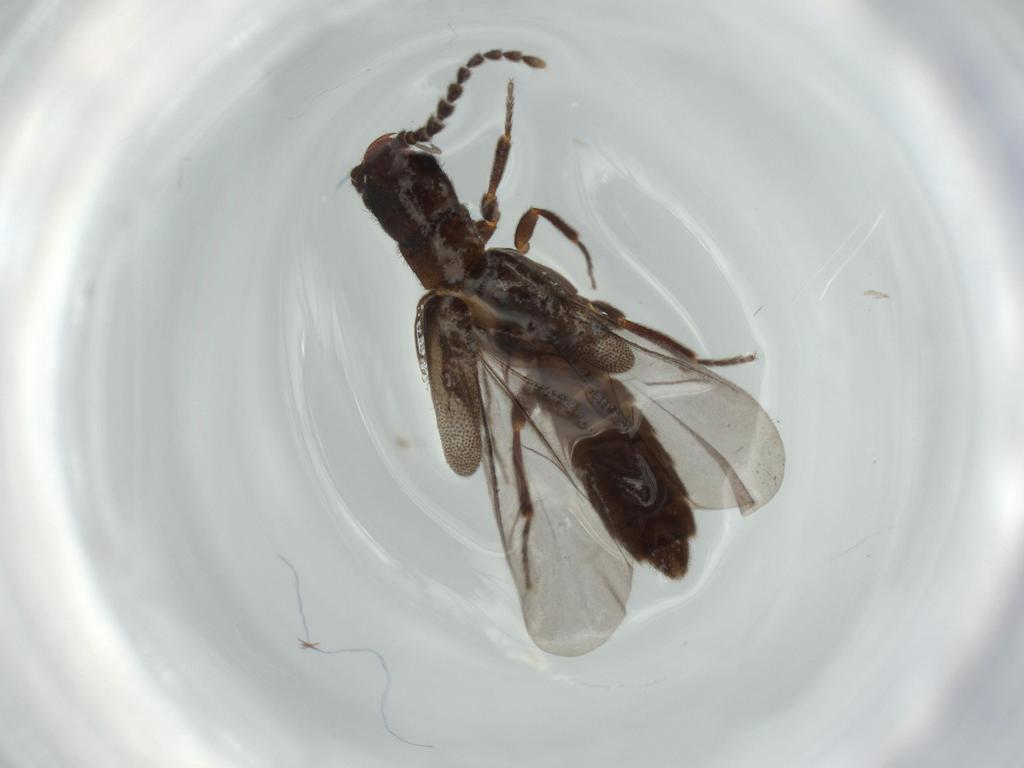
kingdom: Animalia
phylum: Arthropoda
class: Insecta
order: Coleoptera
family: Omethidae
